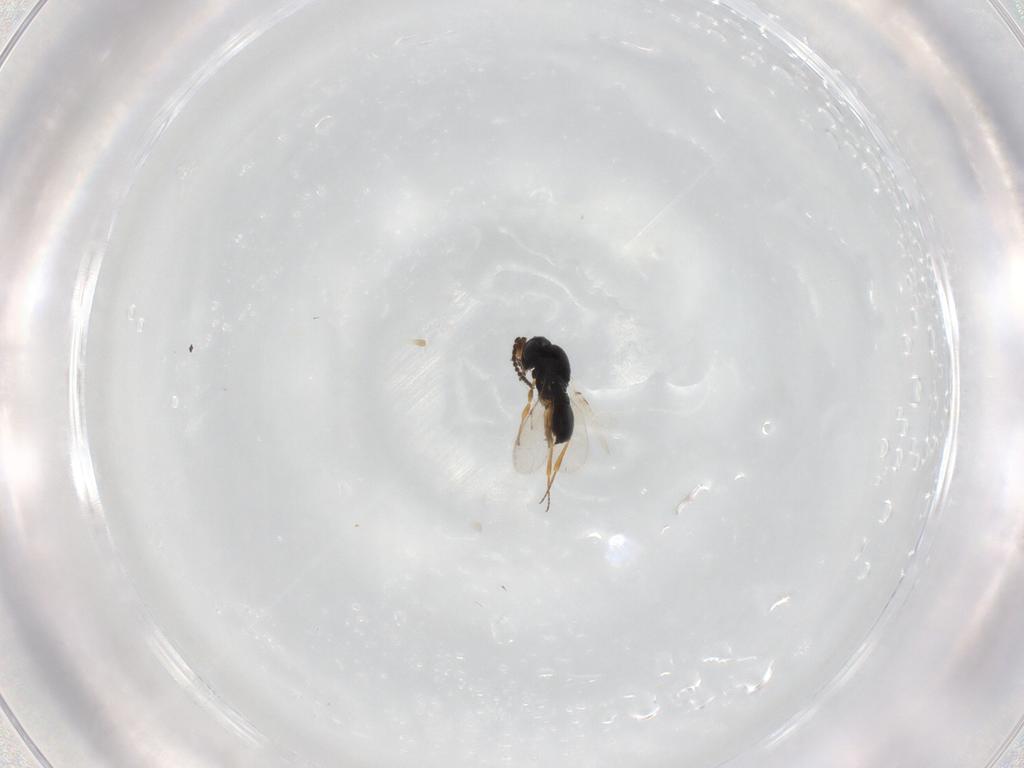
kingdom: Animalia
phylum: Arthropoda
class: Insecta
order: Hymenoptera
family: Scelionidae
